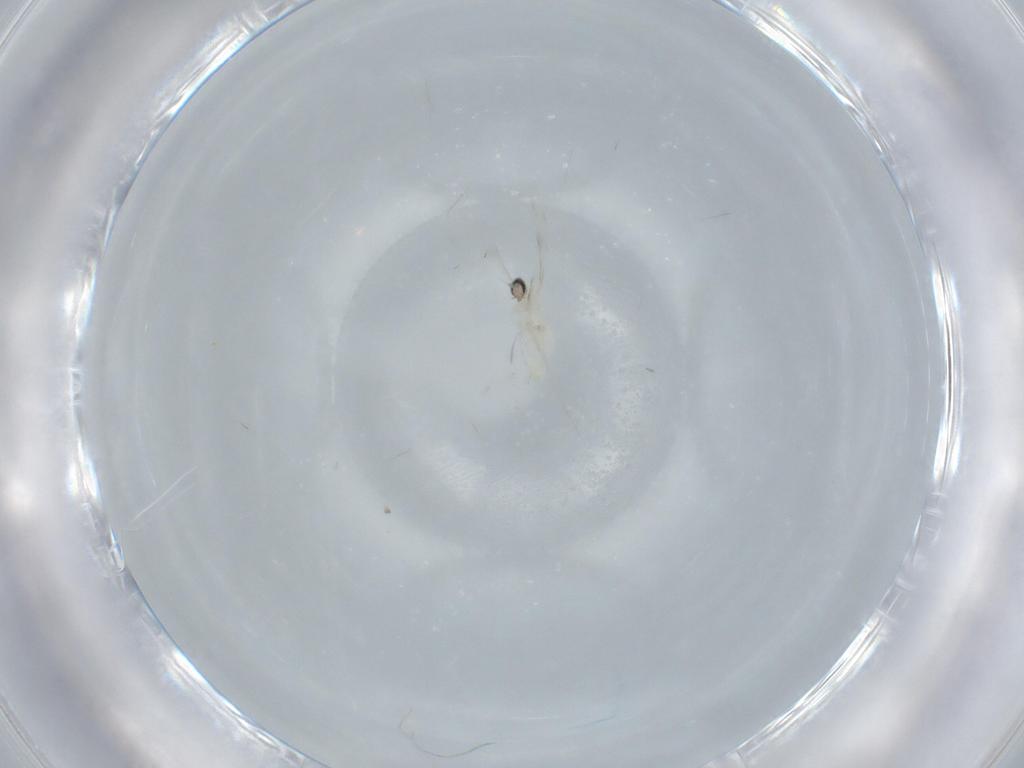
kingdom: Animalia
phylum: Arthropoda
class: Insecta
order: Diptera
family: Cecidomyiidae
